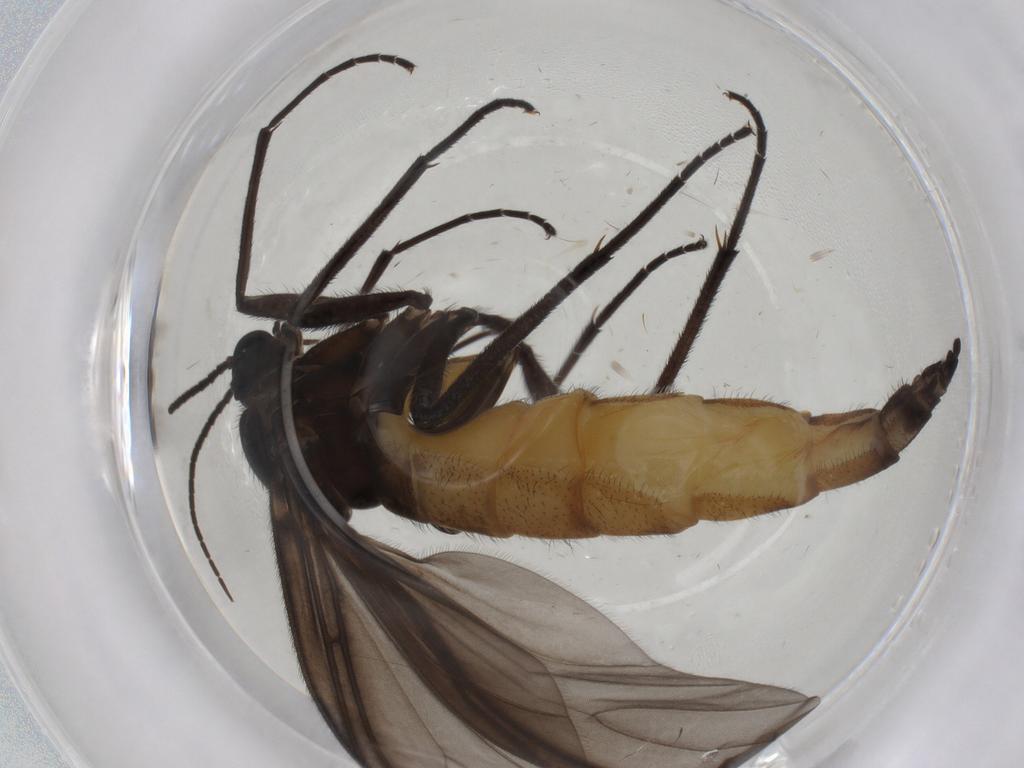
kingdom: Animalia
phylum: Arthropoda
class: Insecta
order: Diptera
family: Drosophilidae
